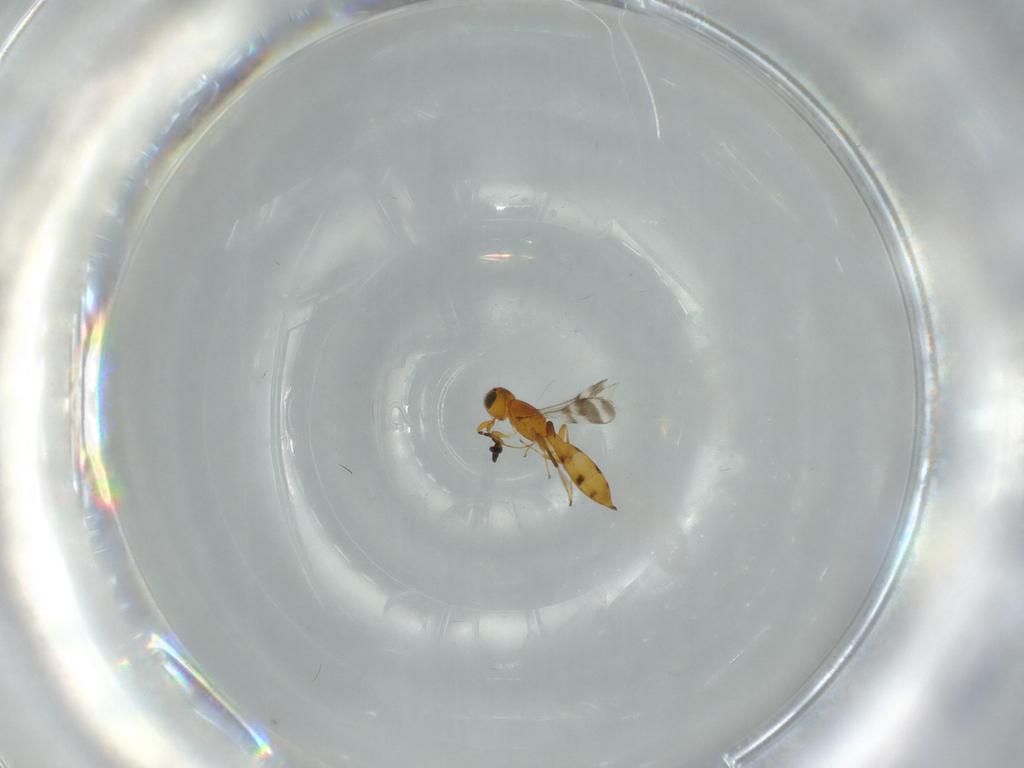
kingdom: Animalia
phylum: Arthropoda
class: Insecta
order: Hymenoptera
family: Scelionidae
